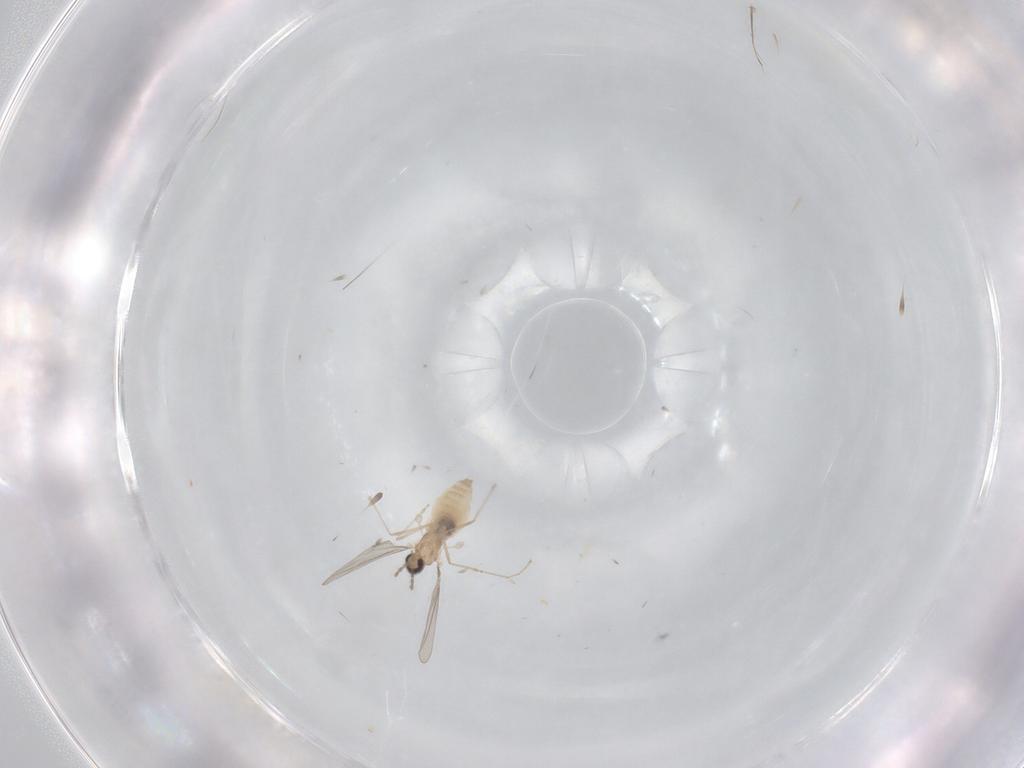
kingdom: Animalia
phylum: Arthropoda
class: Insecta
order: Diptera
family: Cecidomyiidae
